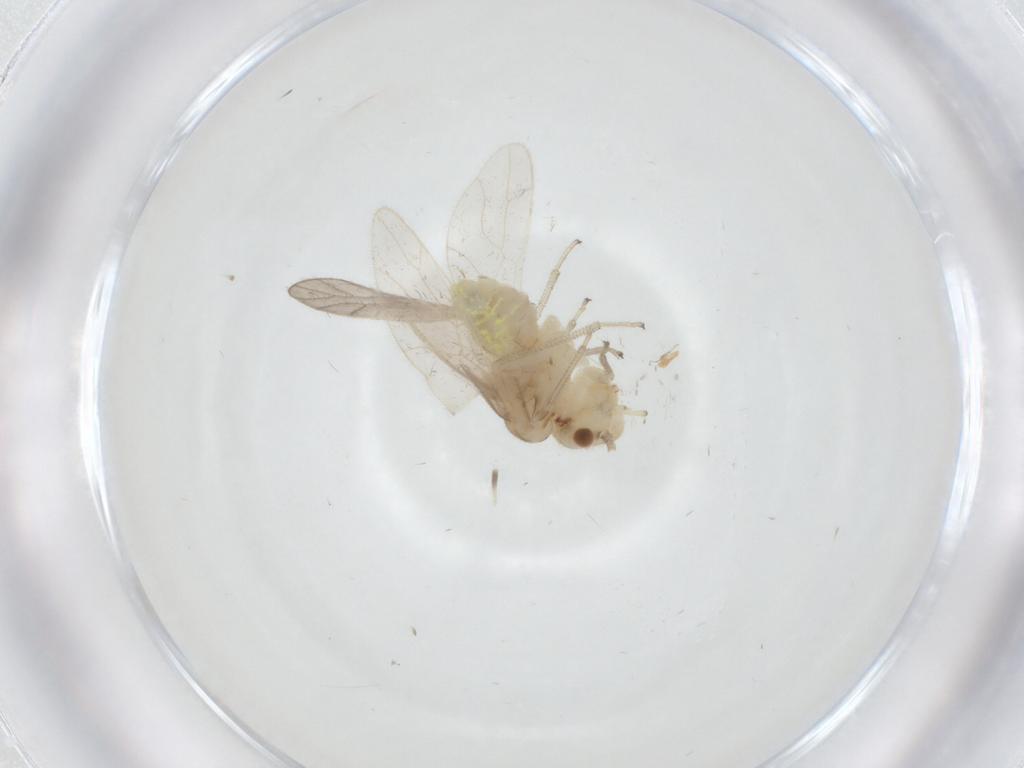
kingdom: Animalia
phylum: Arthropoda
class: Insecta
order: Psocodea
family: Caeciliusidae
